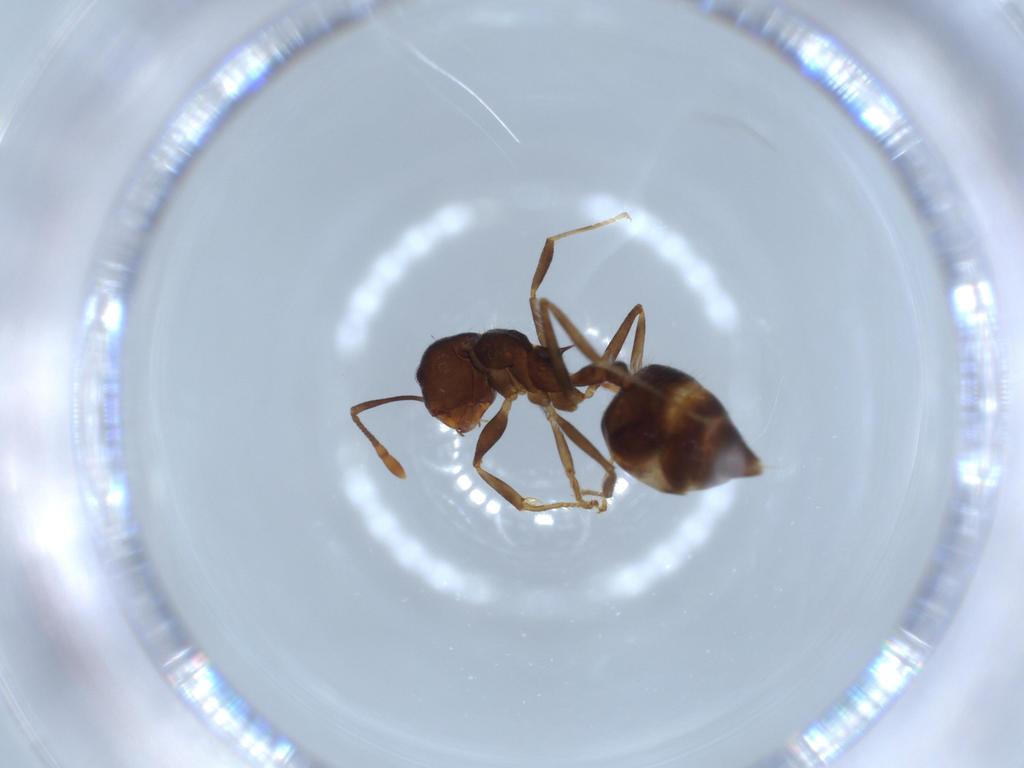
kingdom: Animalia
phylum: Arthropoda
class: Insecta
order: Hymenoptera
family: Formicidae
